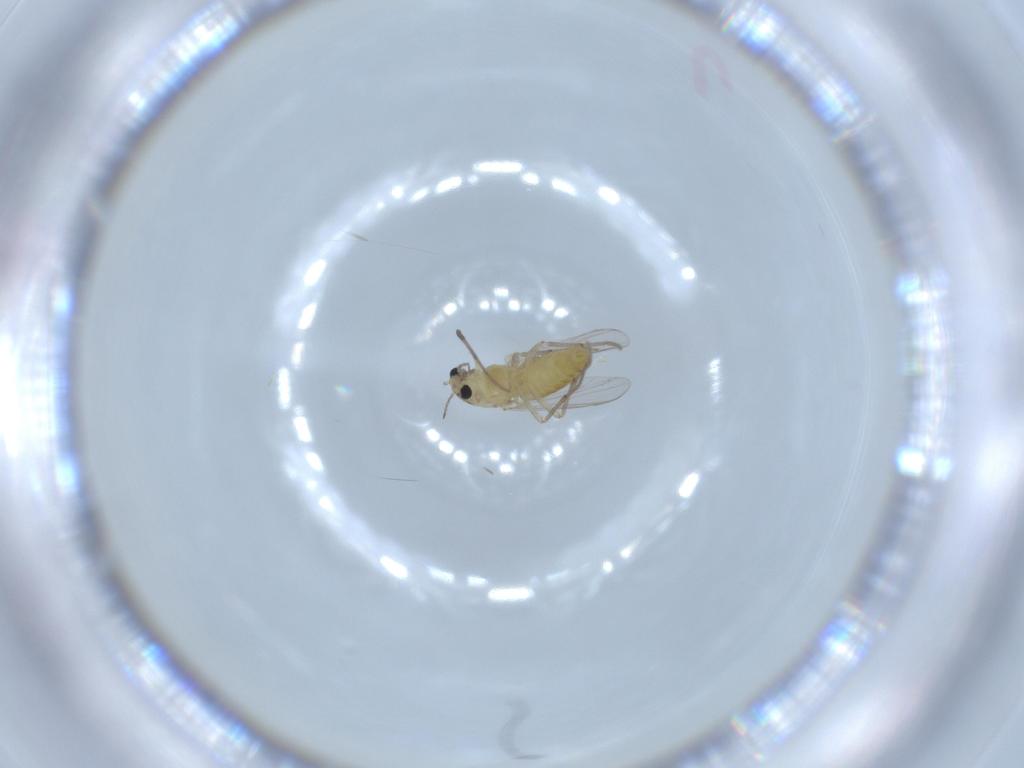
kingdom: Animalia
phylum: Arthropoda
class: Insecta
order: Diptera
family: Chironomidae
